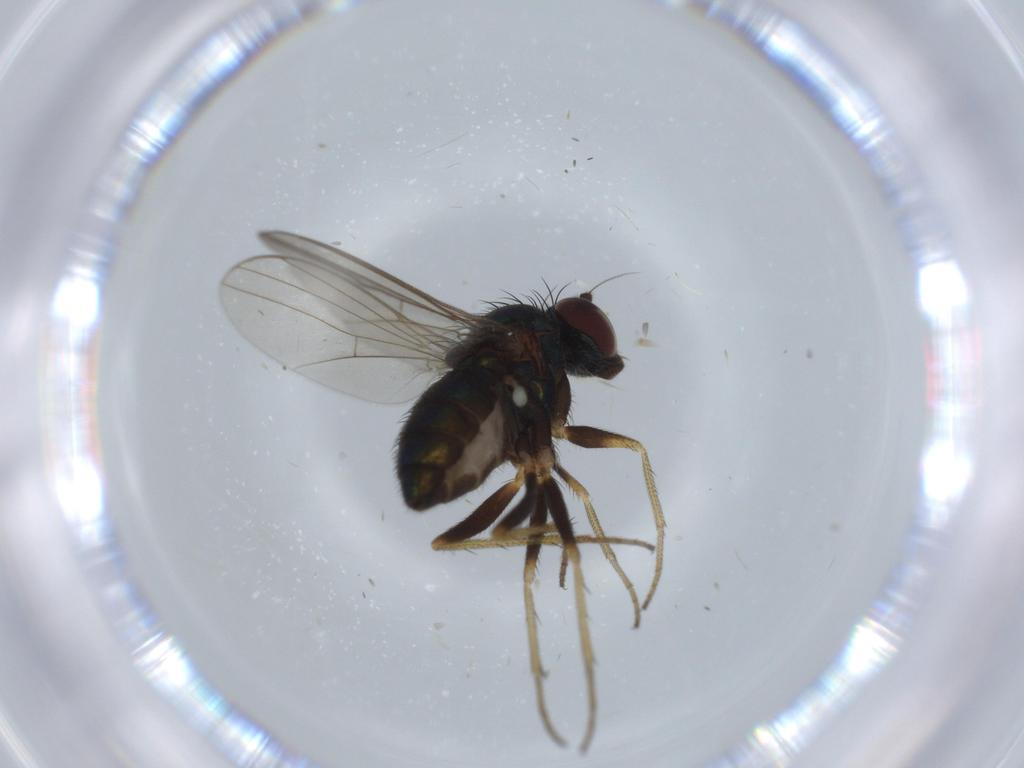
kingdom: Animalia
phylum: Arthropoda
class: Insecta
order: Diptera
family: Dolichopodidae
